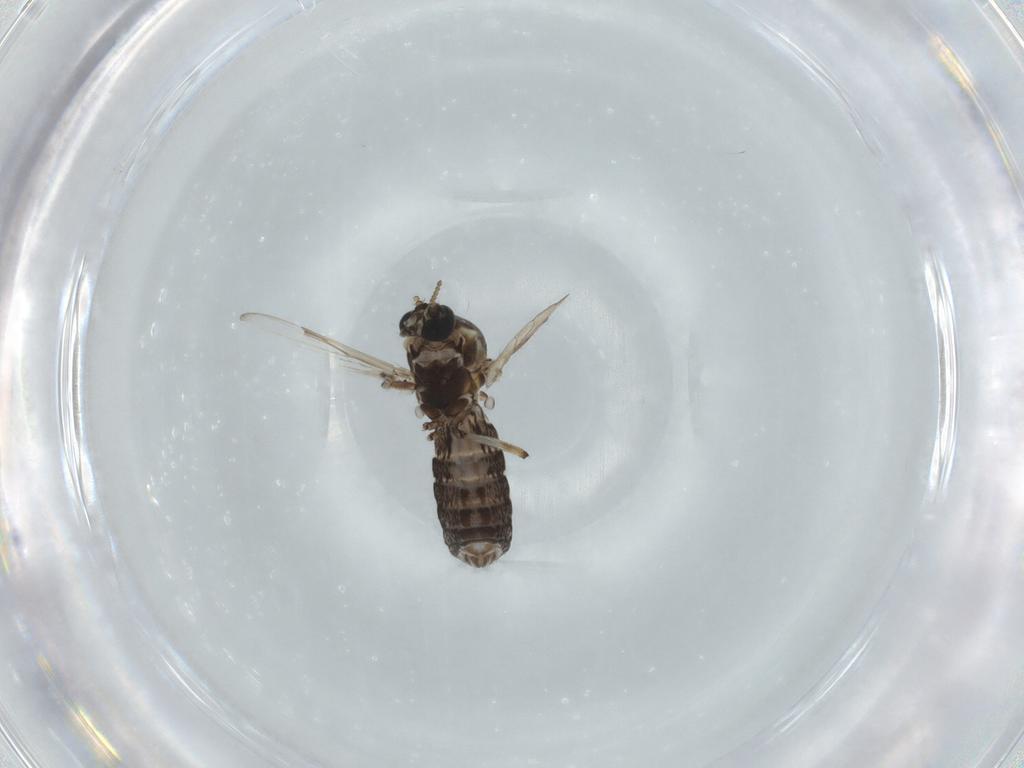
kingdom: Animalia
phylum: Arthropoda
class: Insecta
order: Diptera
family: Ceratopogonidae
